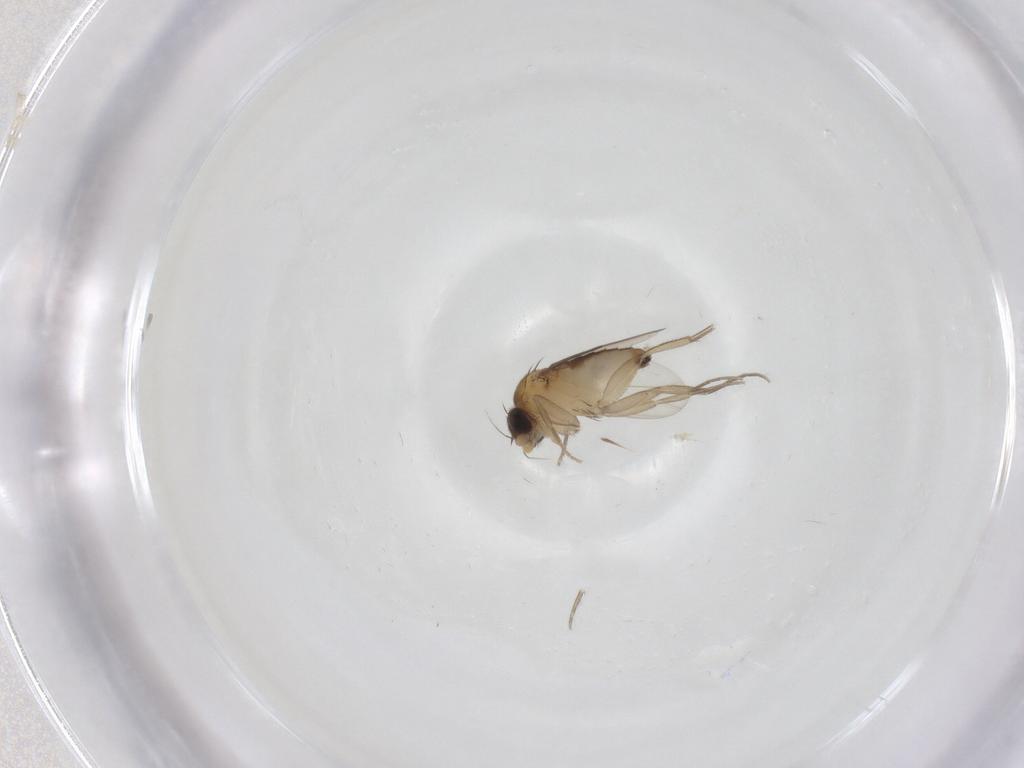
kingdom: Animalia
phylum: Arthropoda
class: Insecta
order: Diptera
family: Phoridae
